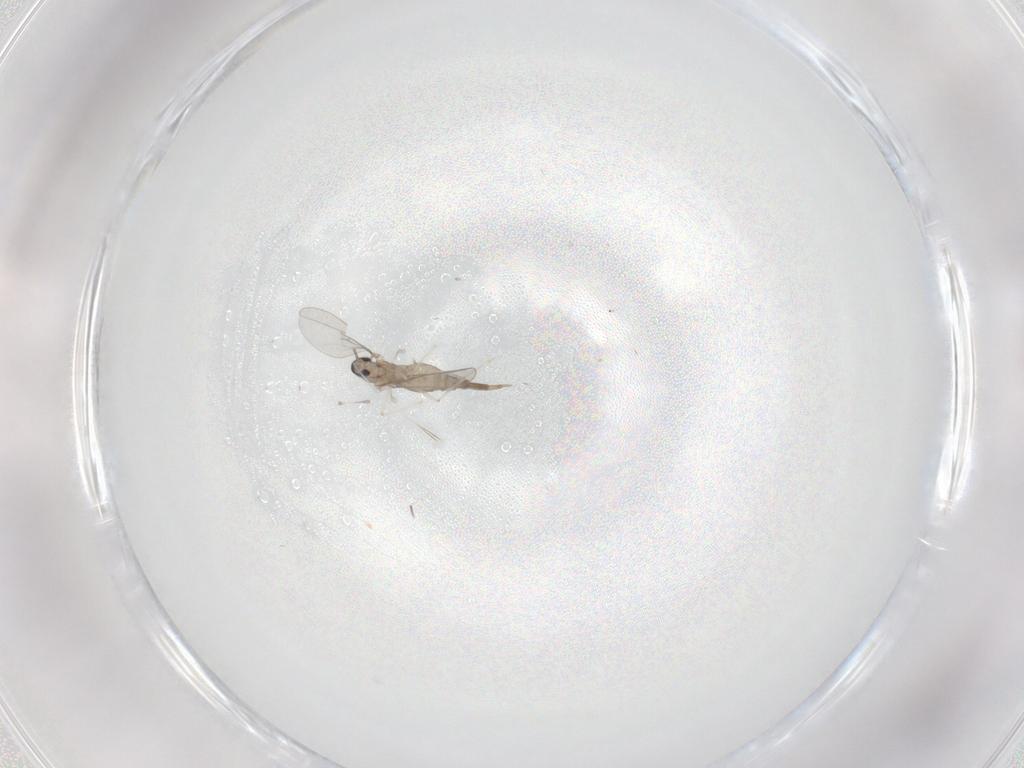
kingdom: Animalia
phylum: Arthropoda
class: Insecta
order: Diptera
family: Cecidomyiidae
